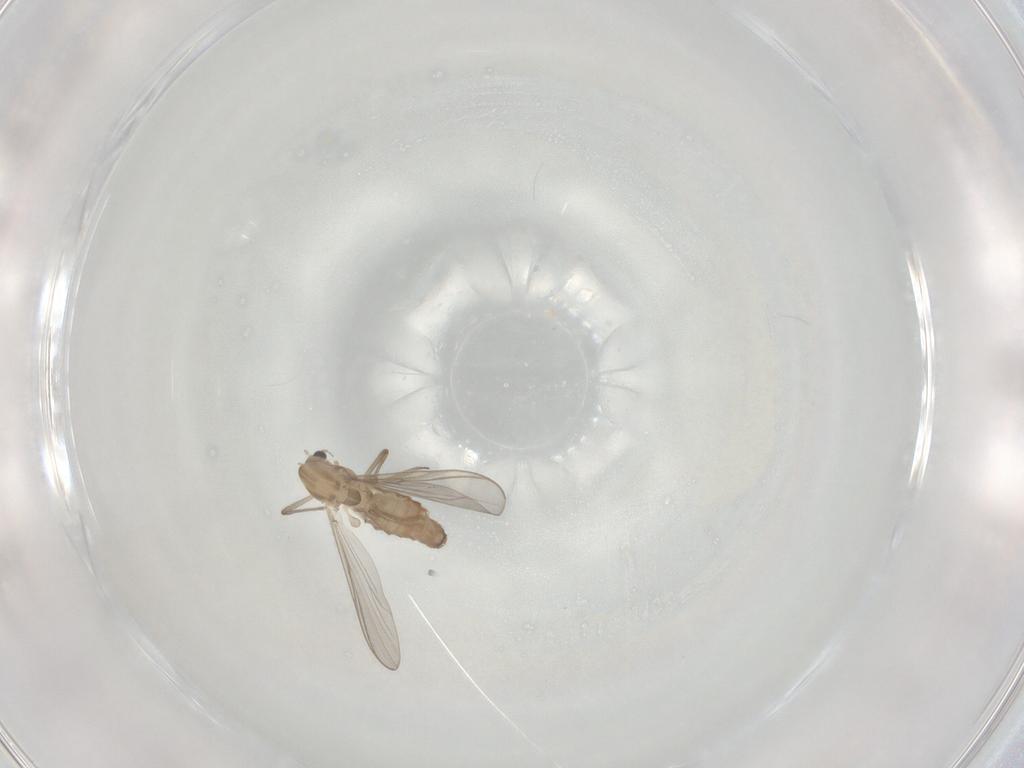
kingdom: Animalia
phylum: Arthropoda
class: Insecta
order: Diptera
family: Chironomidae
